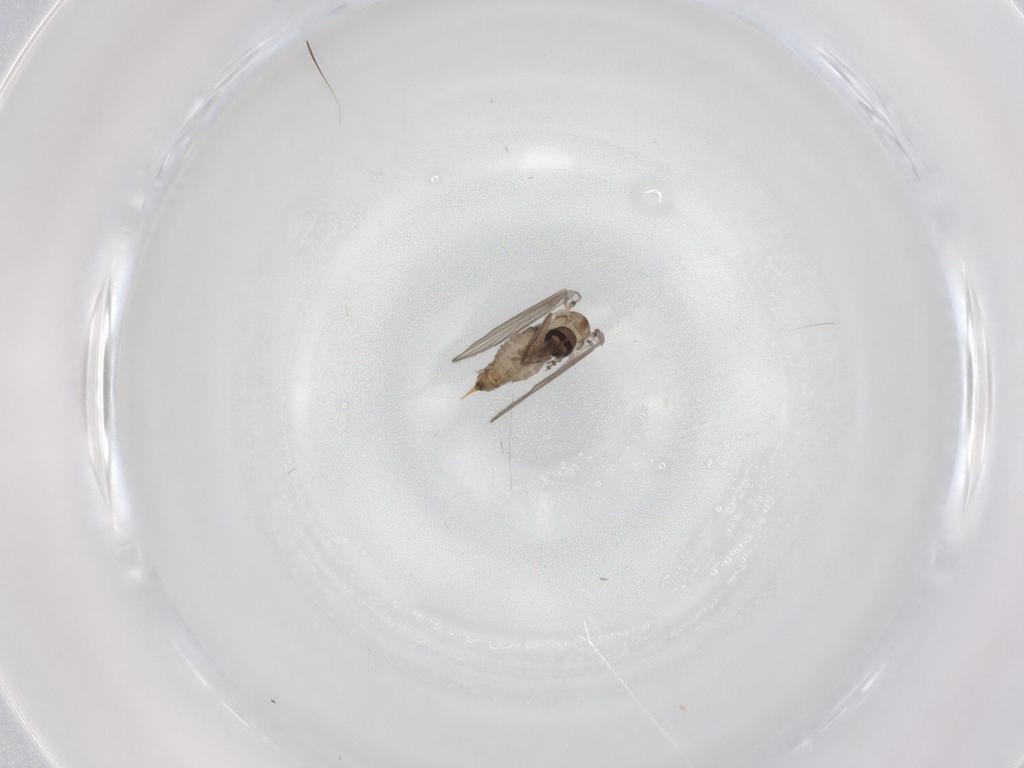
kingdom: Animalia
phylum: Arthropoda
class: Insecta
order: Diptera
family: Psychodidae
